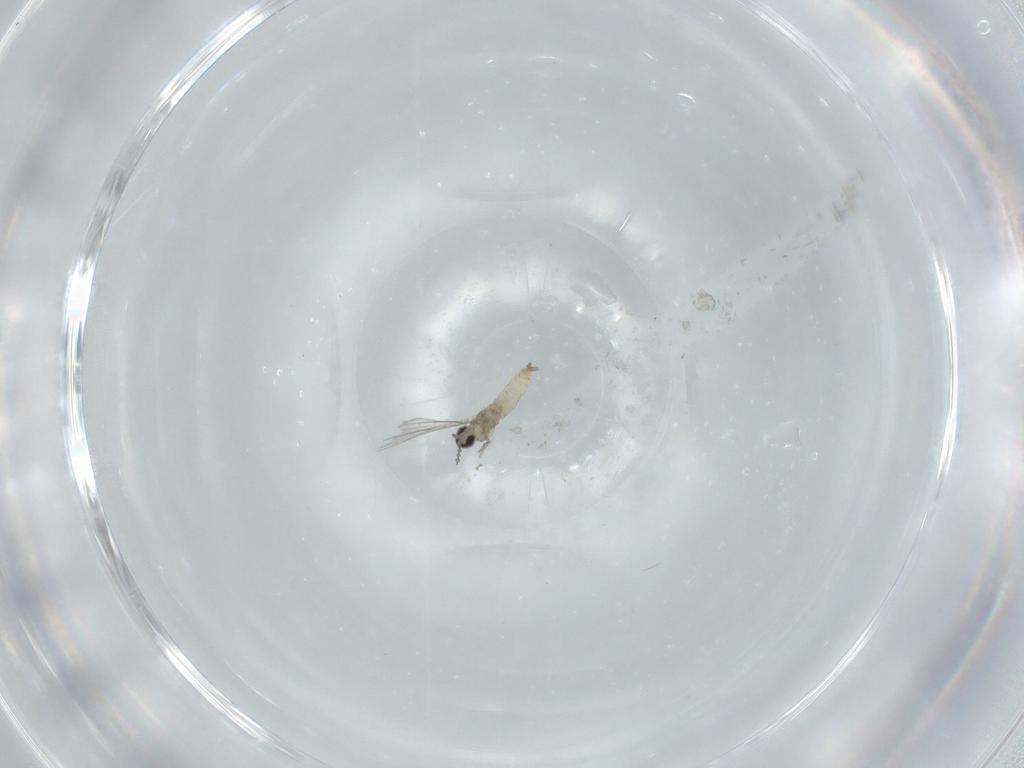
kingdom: Animalia
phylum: Arthropoda
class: Insecta
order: Diptera
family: Cecidomyiidae
